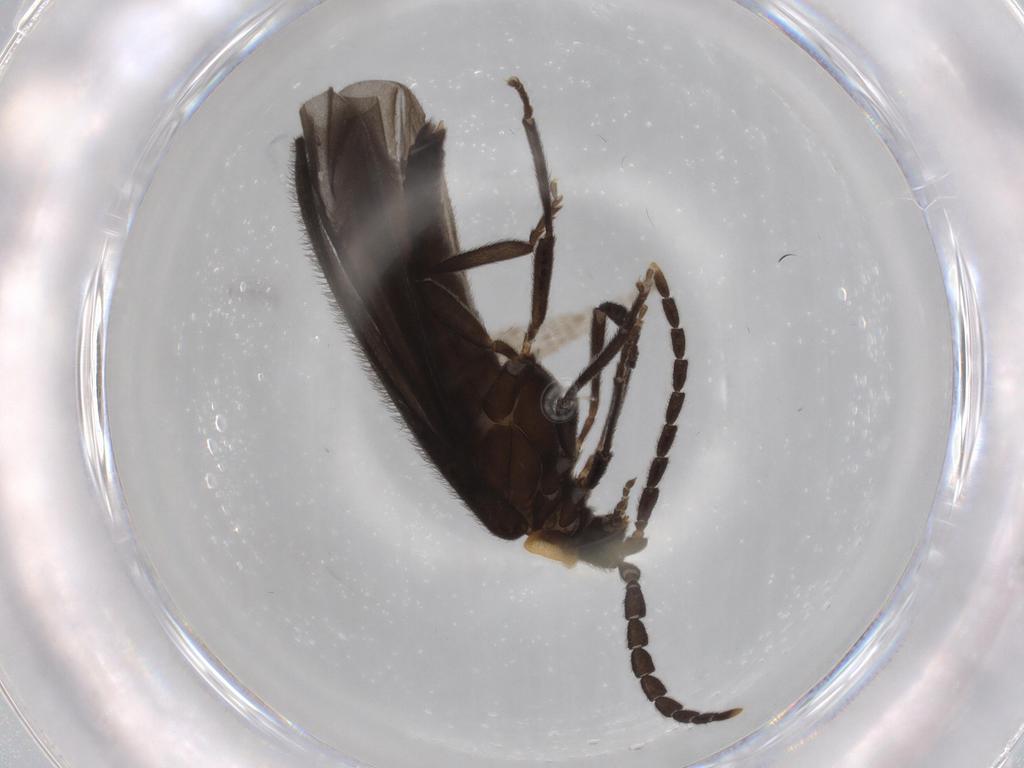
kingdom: Animalia
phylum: Arthropoda
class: Insecta
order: Coleoptera
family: Lycidae
